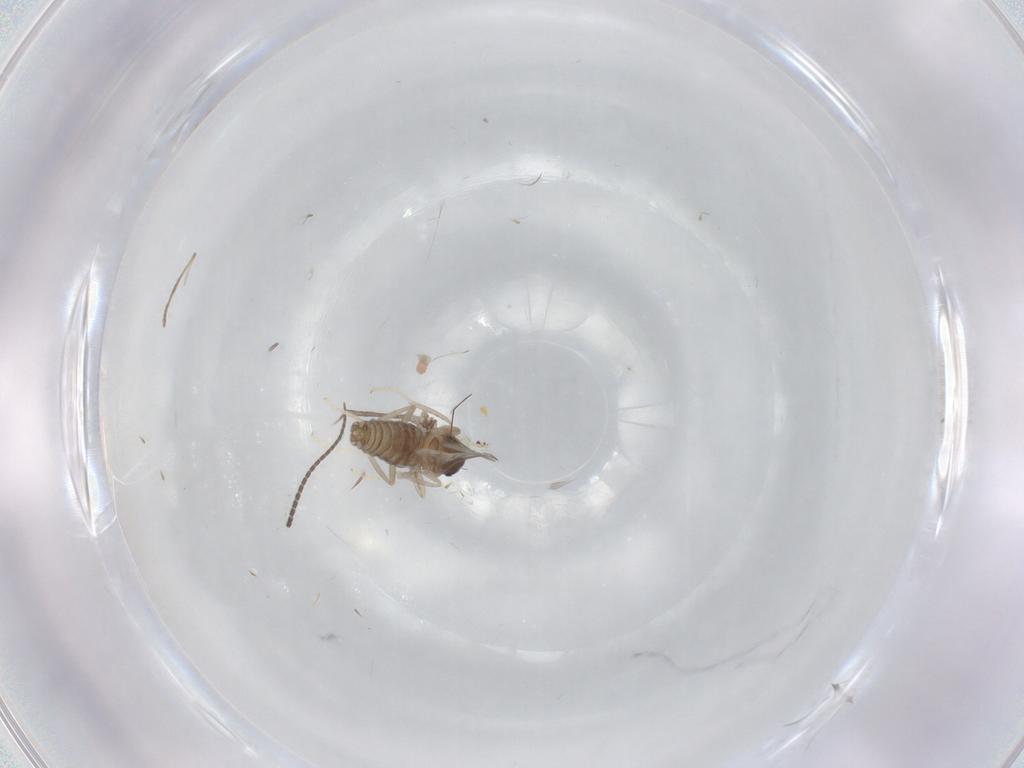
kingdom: Animalia
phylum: Arthropoda
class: Insecta
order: Diptera
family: Cecidomyiidae
